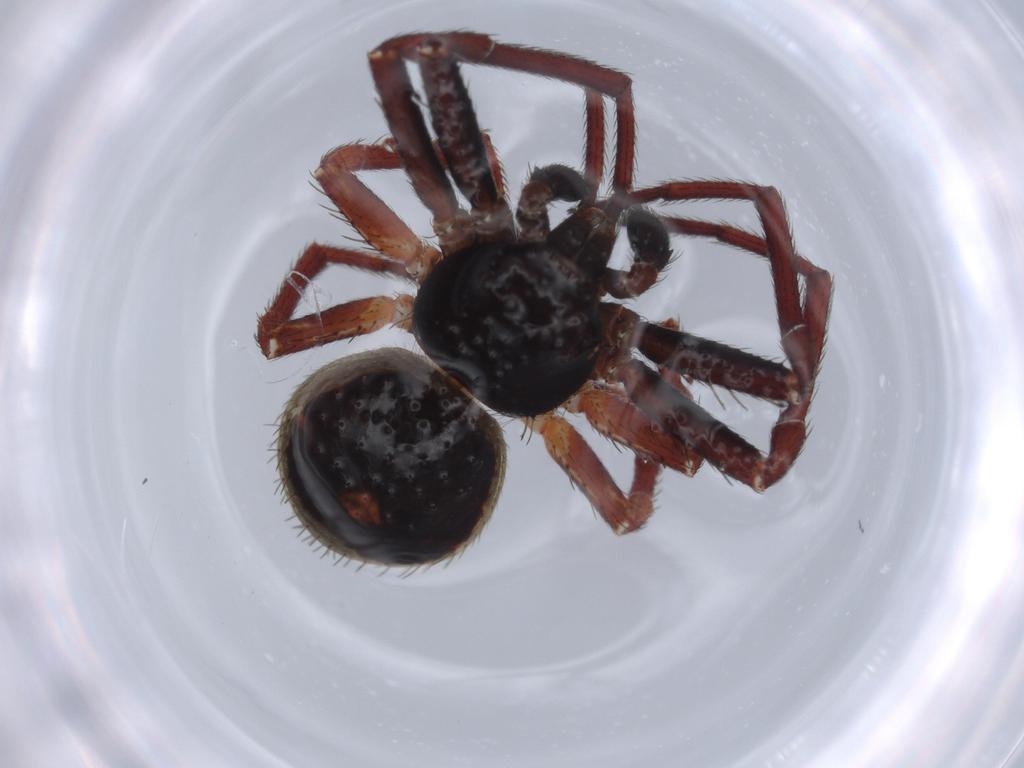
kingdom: Animalia
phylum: Arthropoda
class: Arachnida
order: Araneae
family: Thomisidae
